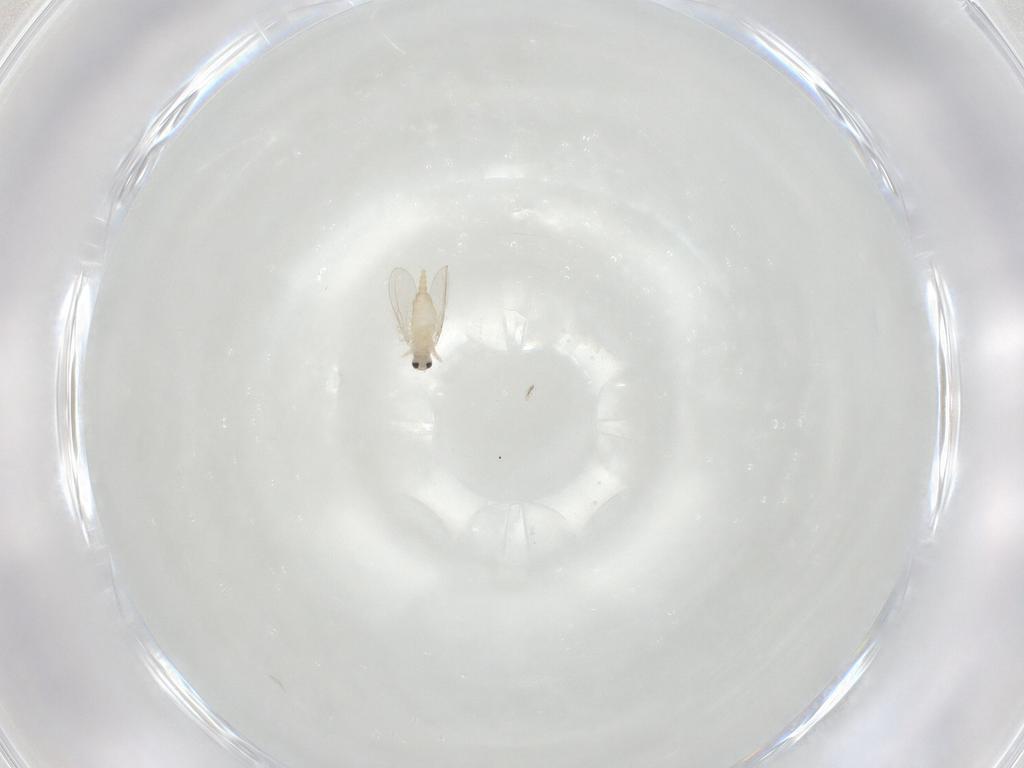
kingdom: Animalia
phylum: Arthropoda
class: Insecta
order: Diptera
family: Cecidomyiidae
